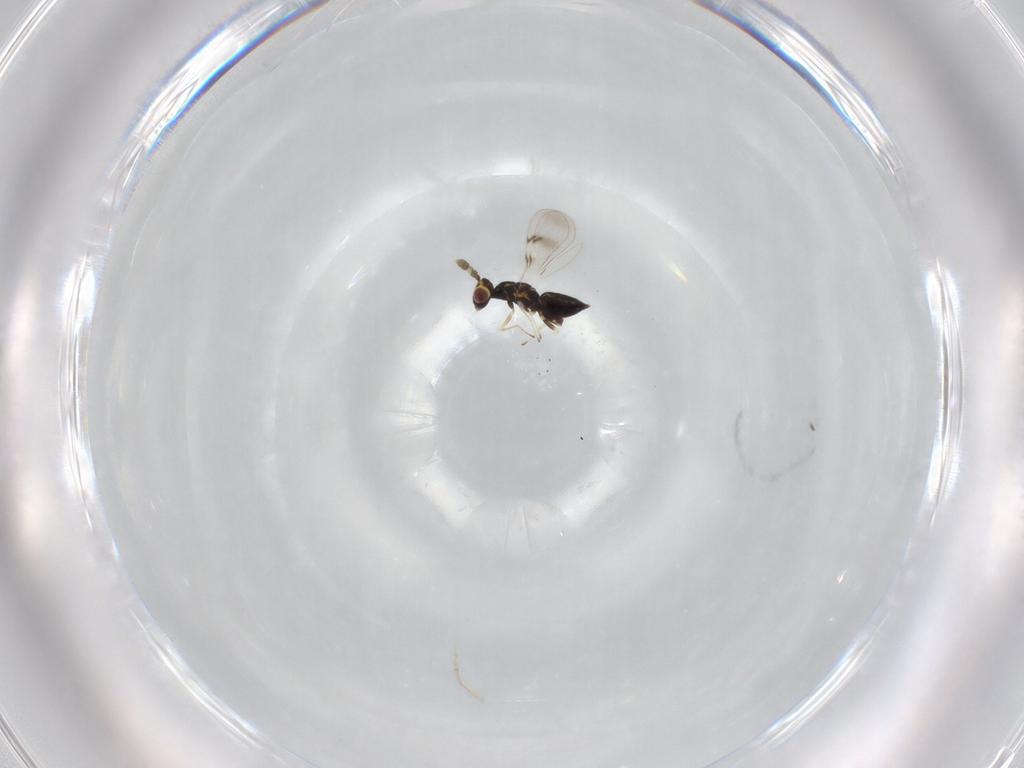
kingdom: Animalia
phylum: Arthropoda
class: Insecta
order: Hymenoptera
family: Eulophidae
